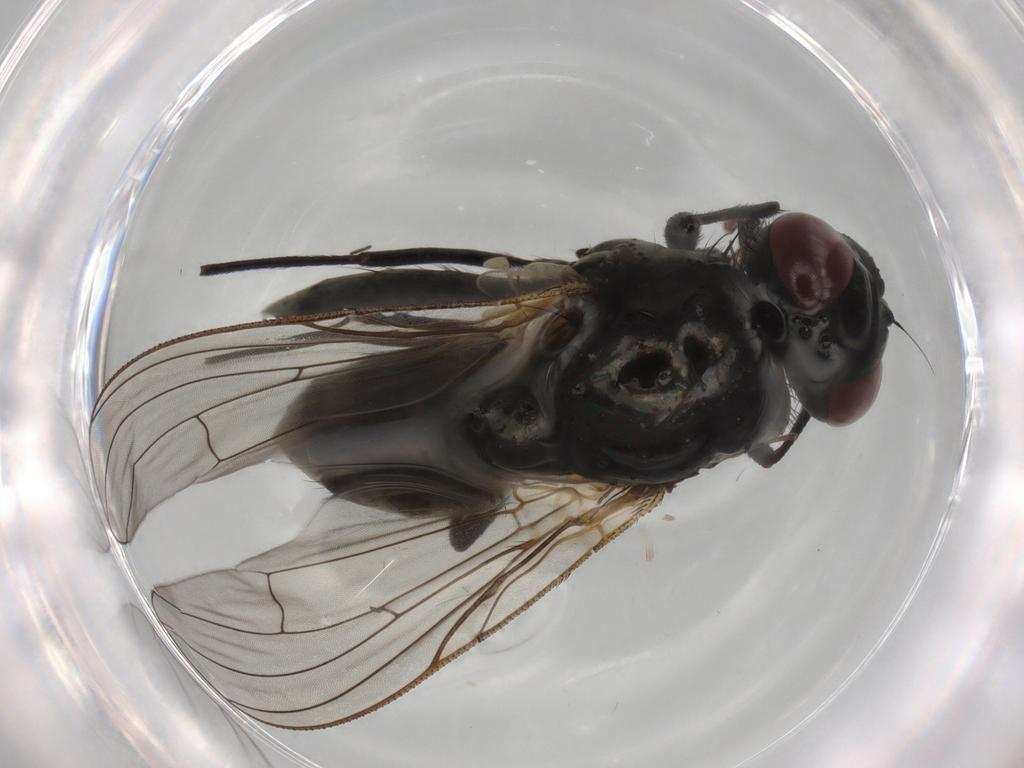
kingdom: Animalia
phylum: Arthropoda
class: Insecta
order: Diptera
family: Muscidae
